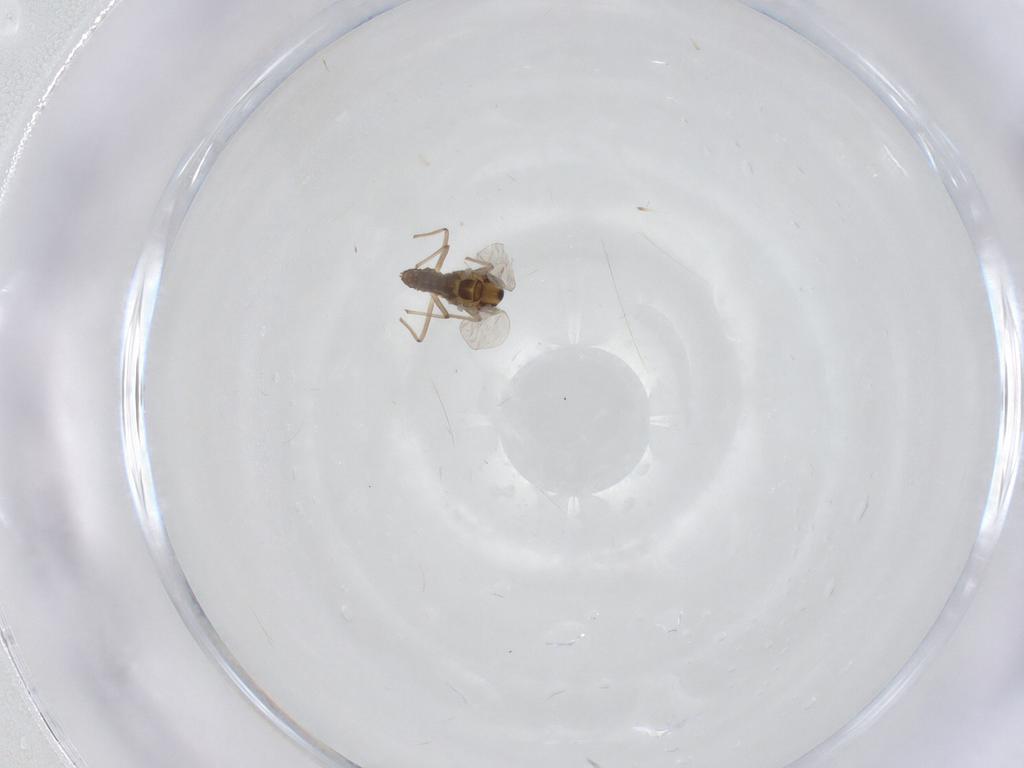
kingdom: Animalia
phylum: Arthropoda
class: Insecta
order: Diptera
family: Chironomidae
